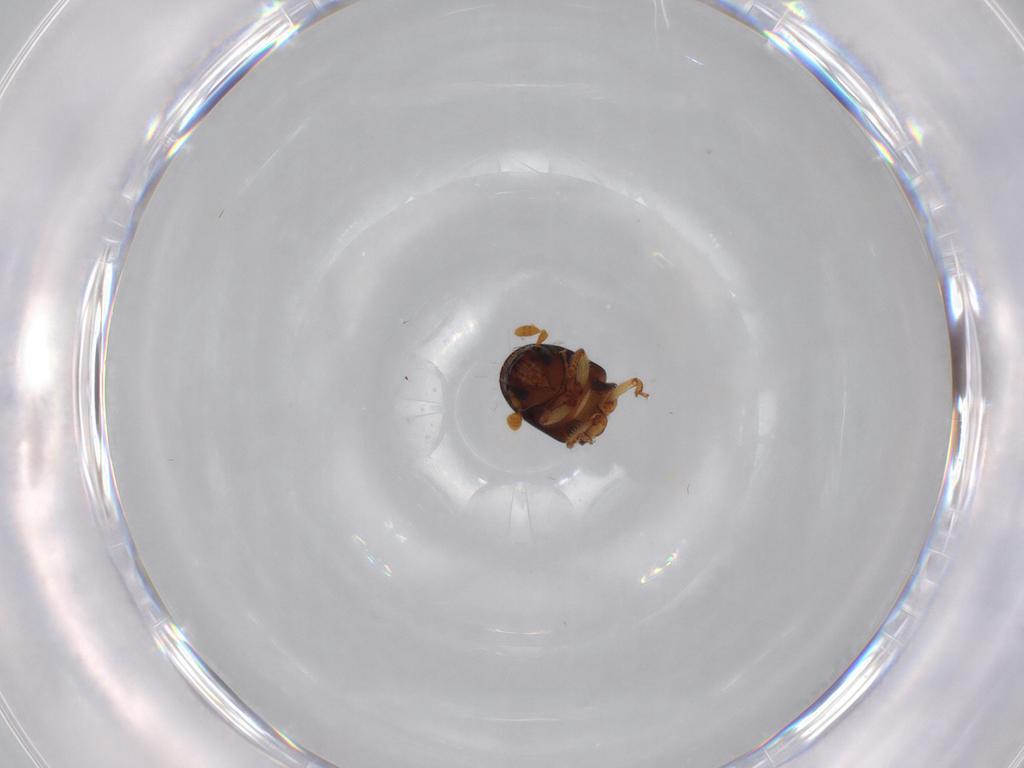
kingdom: Animalia
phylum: Arthropoda
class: Insecta
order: Coleoptera
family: Curculionidae
